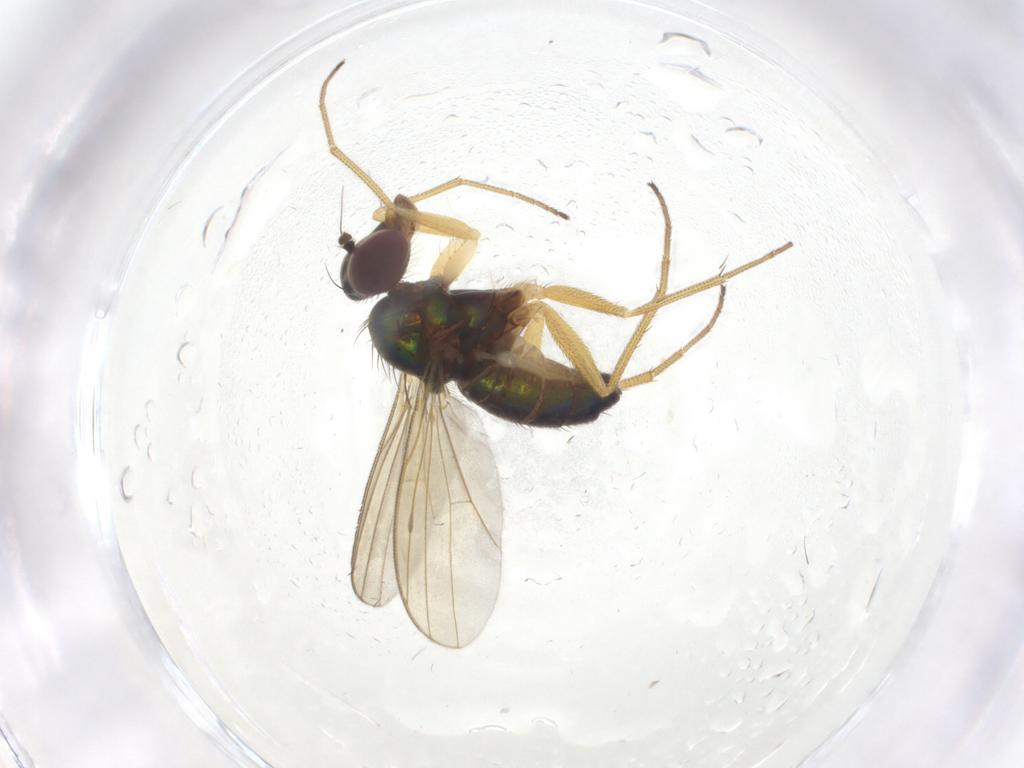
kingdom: Animalia
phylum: Arthropoda
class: Insecta
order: Diptera
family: Dolichopodidae
